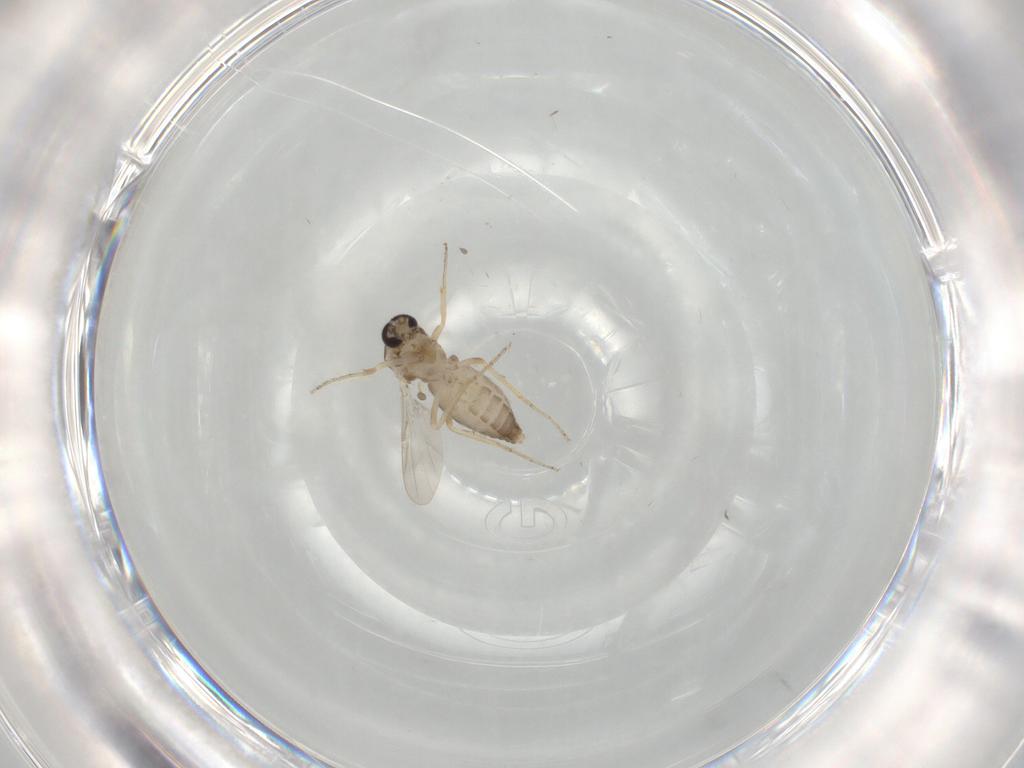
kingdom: Animalia
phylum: Arthropoda
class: Insecta
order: Diptera
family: Ceratopogonidae
